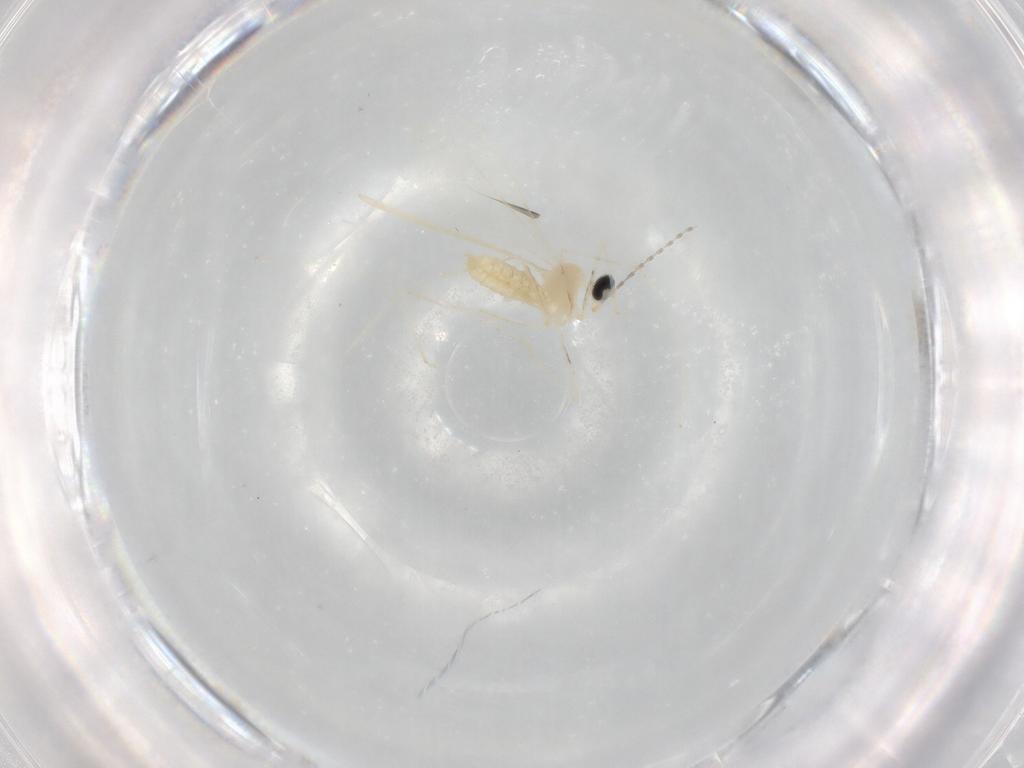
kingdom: Animalia
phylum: Arthropoda
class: Insecta
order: Diptera
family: Cecidomyiidae
